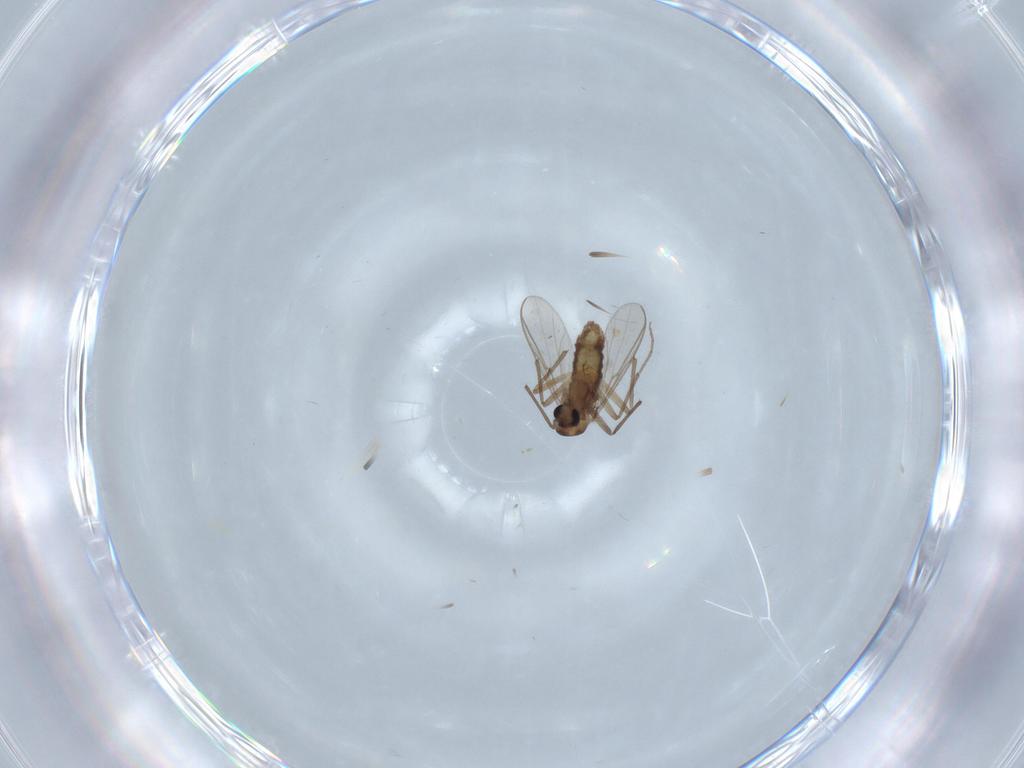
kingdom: Animalia
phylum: Arthropoda
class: Insecta
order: Diptera
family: Chironomidae
